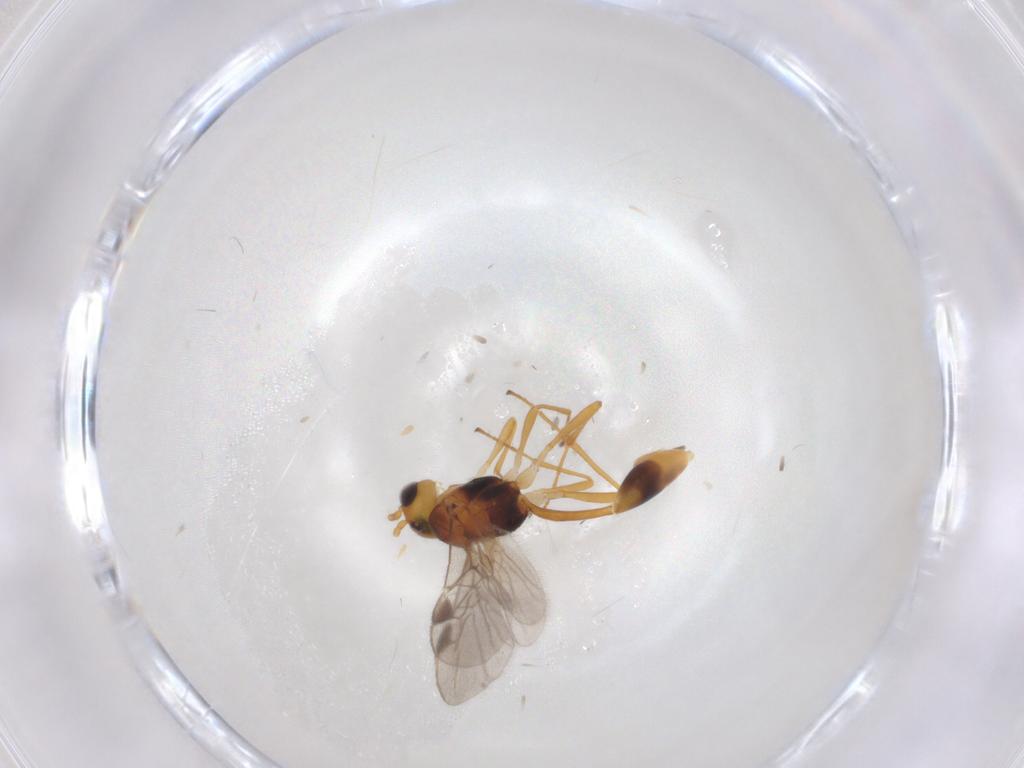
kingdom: Animalia
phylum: Arthropoda
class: Insecta
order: Hymenoptera
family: Braconidae
